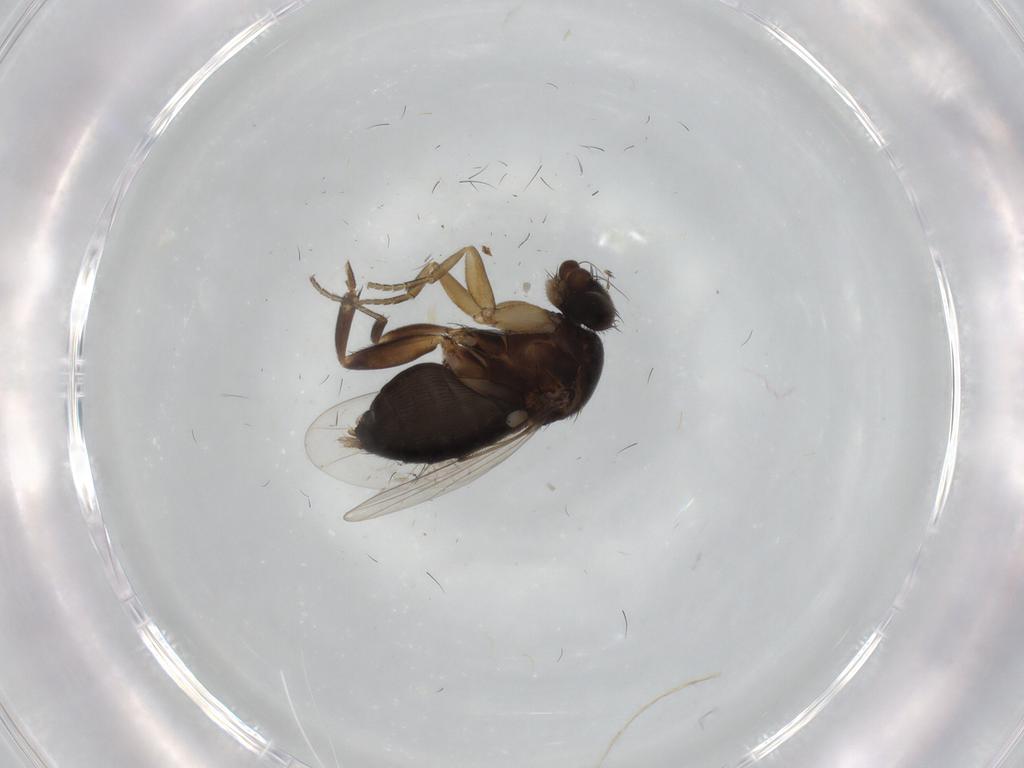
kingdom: Animalia
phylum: Arthropoda
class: Insecta
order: Diptera
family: Phoridae
